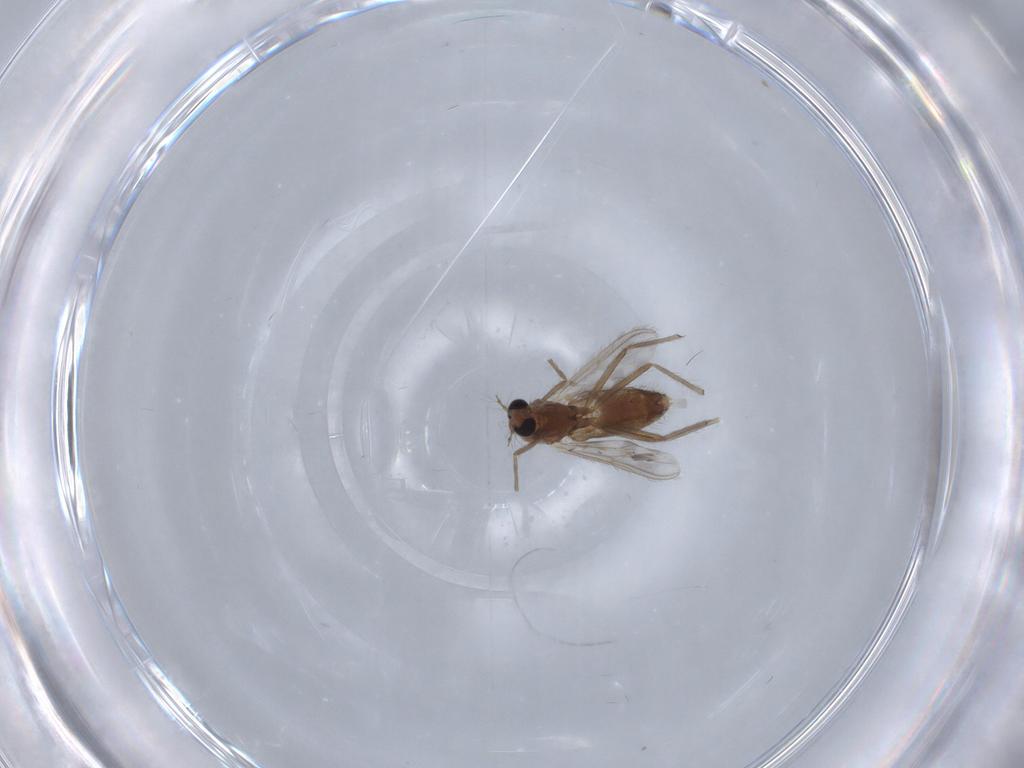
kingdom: Animalia
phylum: Arthropoda
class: Insecta
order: Diptera
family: Chironomidae
